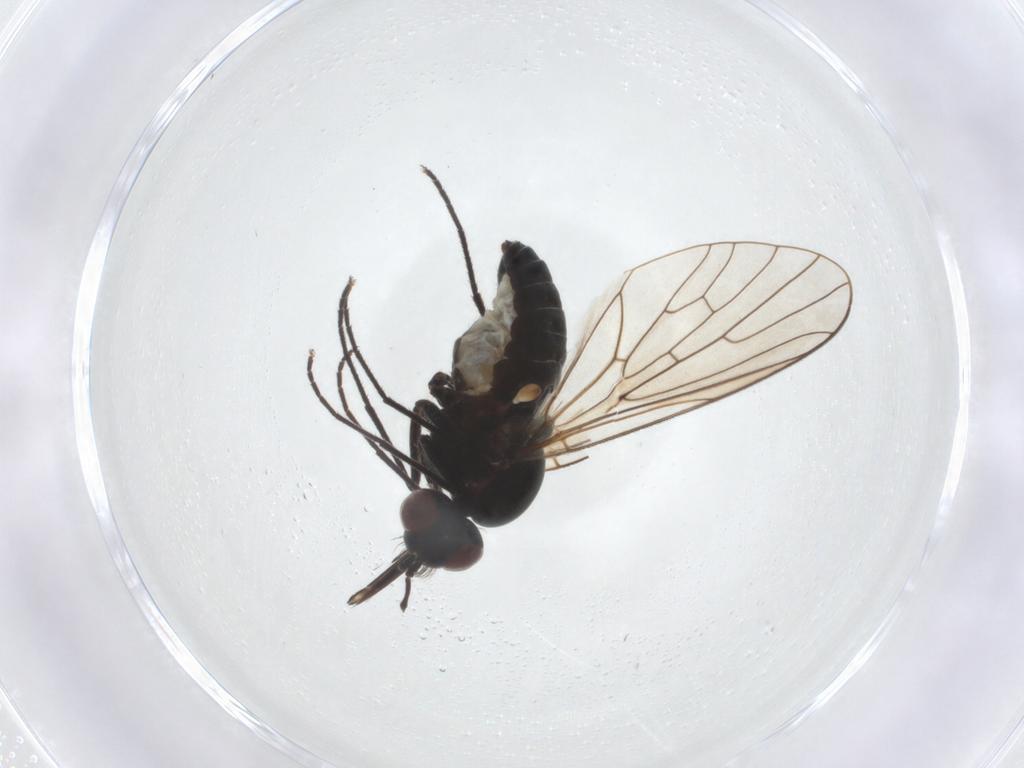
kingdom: Animalia
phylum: Arthropoda
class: Insecta
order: Diptera
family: Bombyliidae
